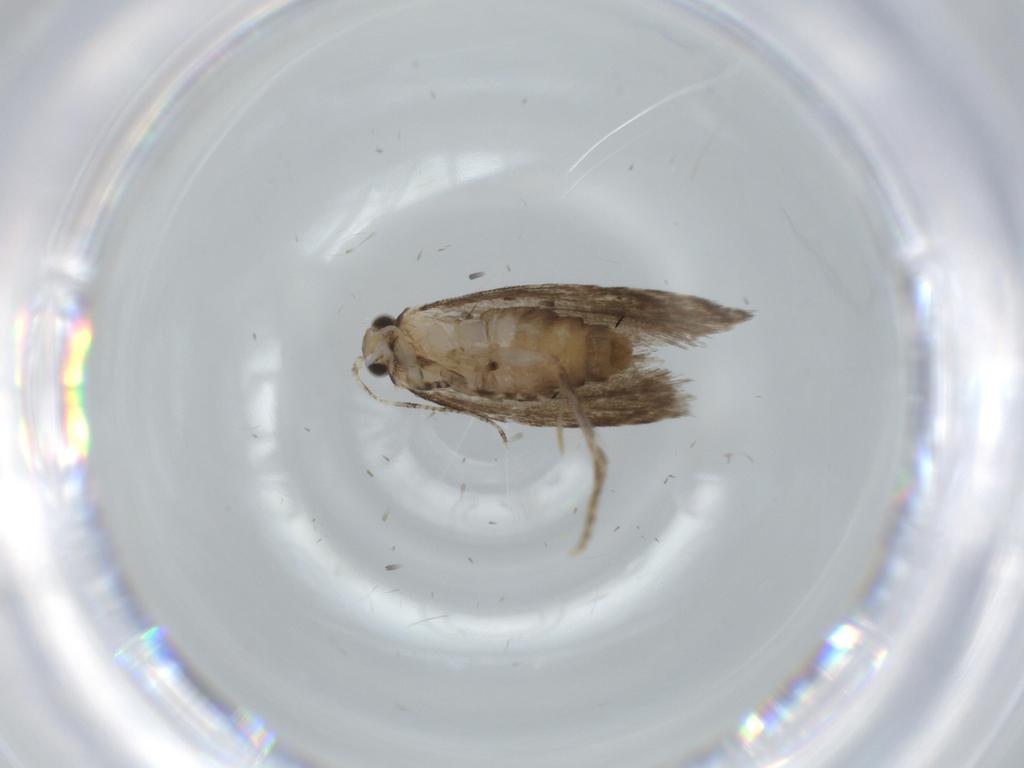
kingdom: Animalia
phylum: Arthropoda
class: Insecta
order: Lepidoptera
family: Tineidae
